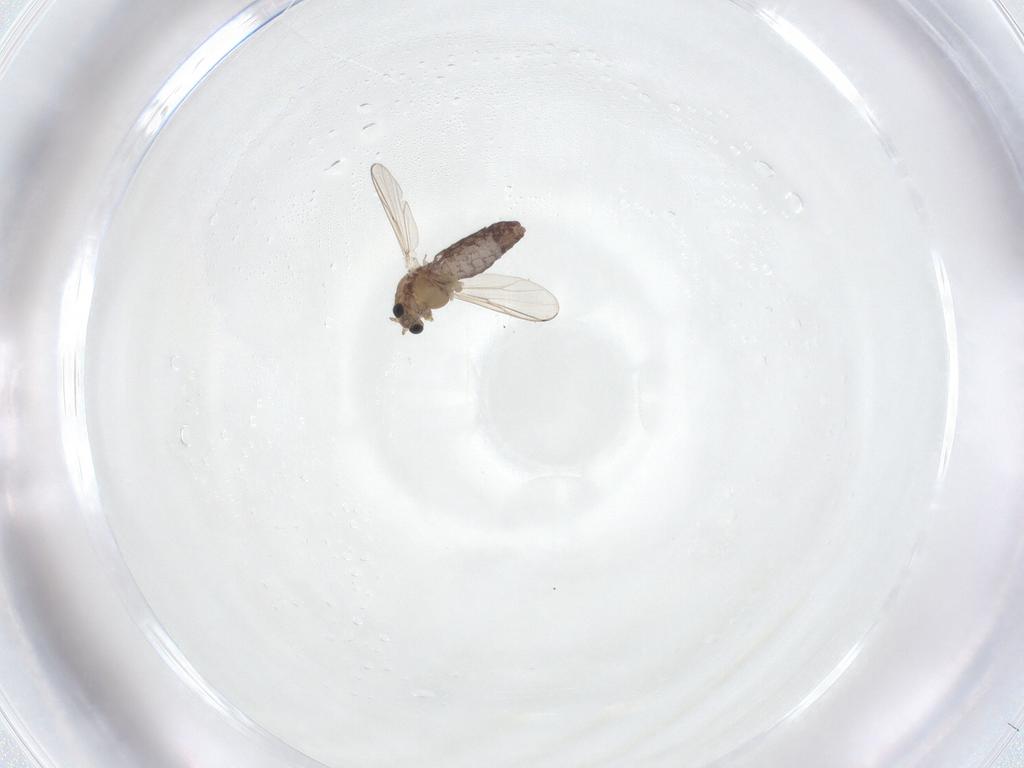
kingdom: Animalia
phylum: Arthropoda
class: Insecta
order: Diptera
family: Chironomidae
